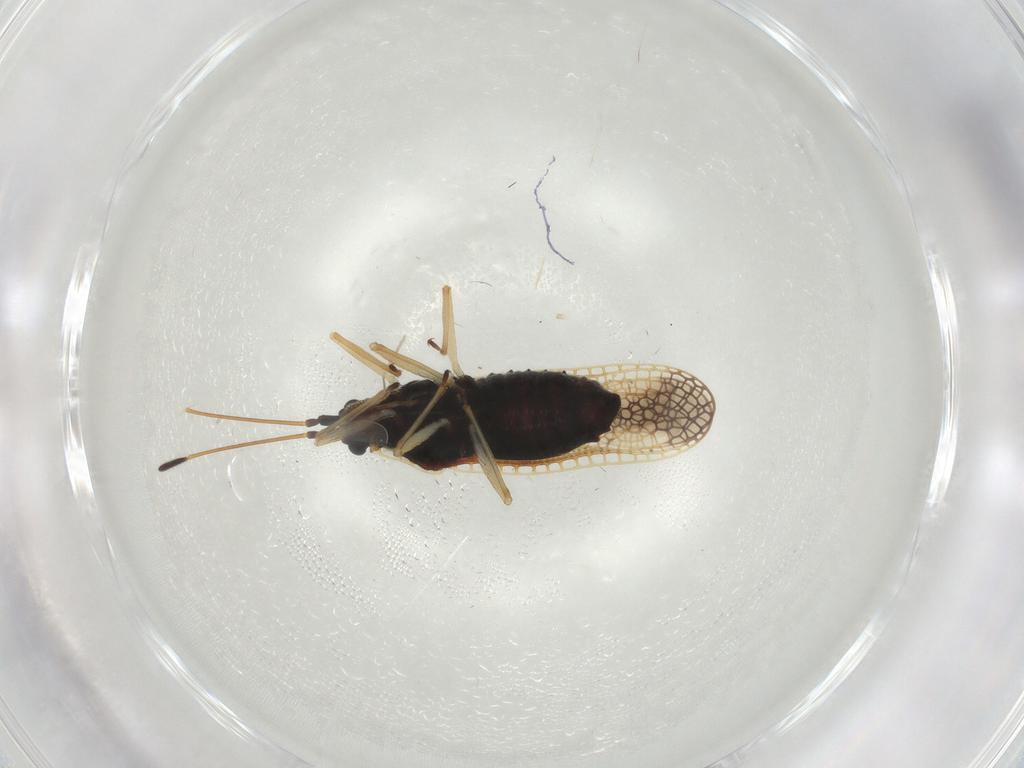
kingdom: Animalia
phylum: Arthropoda
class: Insecta
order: Hemiptera
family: Tingidae
